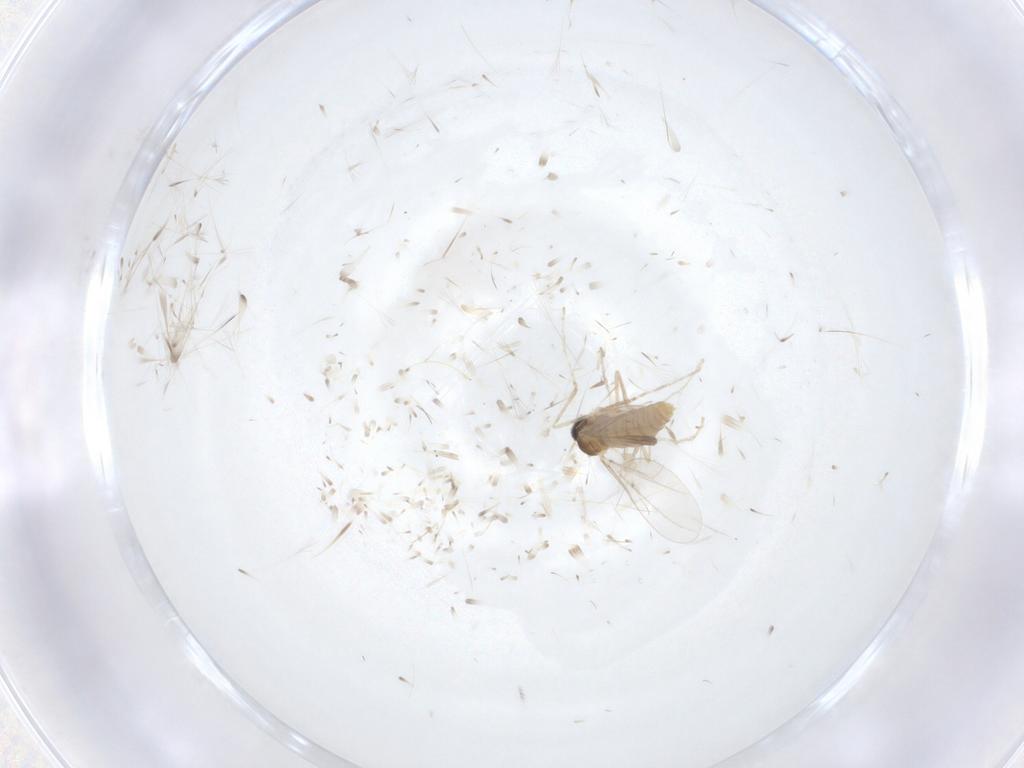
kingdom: Animalia
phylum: Arthropoda
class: Insecta
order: Diptera
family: Cecidomyiidae
